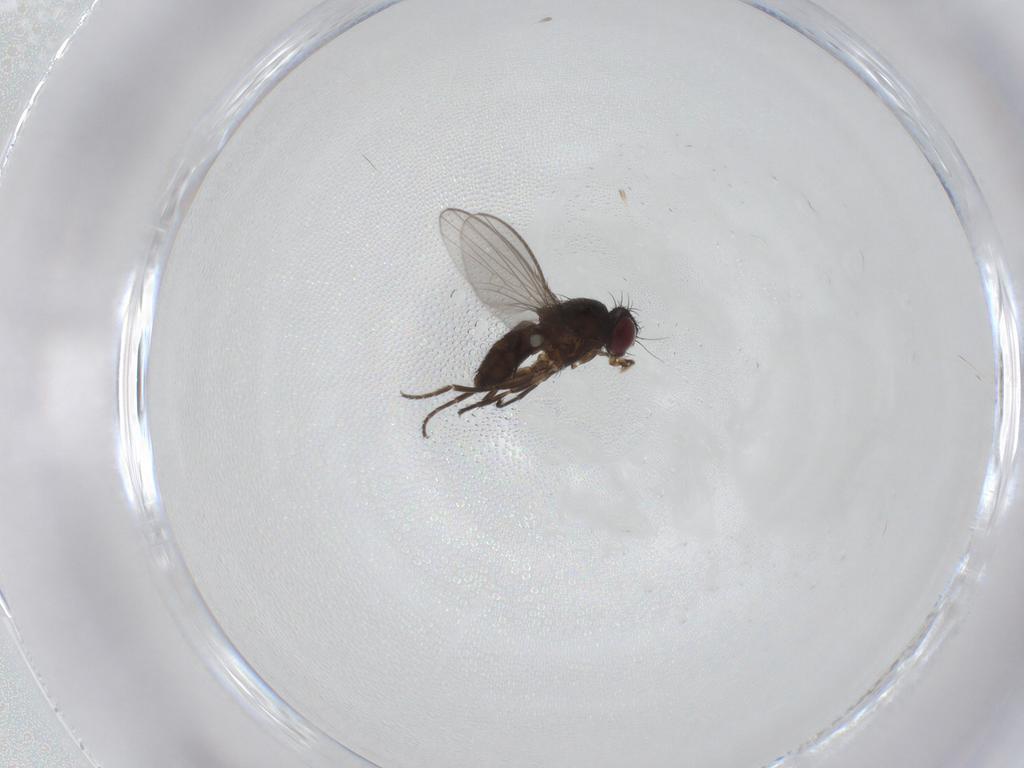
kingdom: Animalia
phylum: Arthropoda
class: Insecta
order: Diptera
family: Milichiidae
